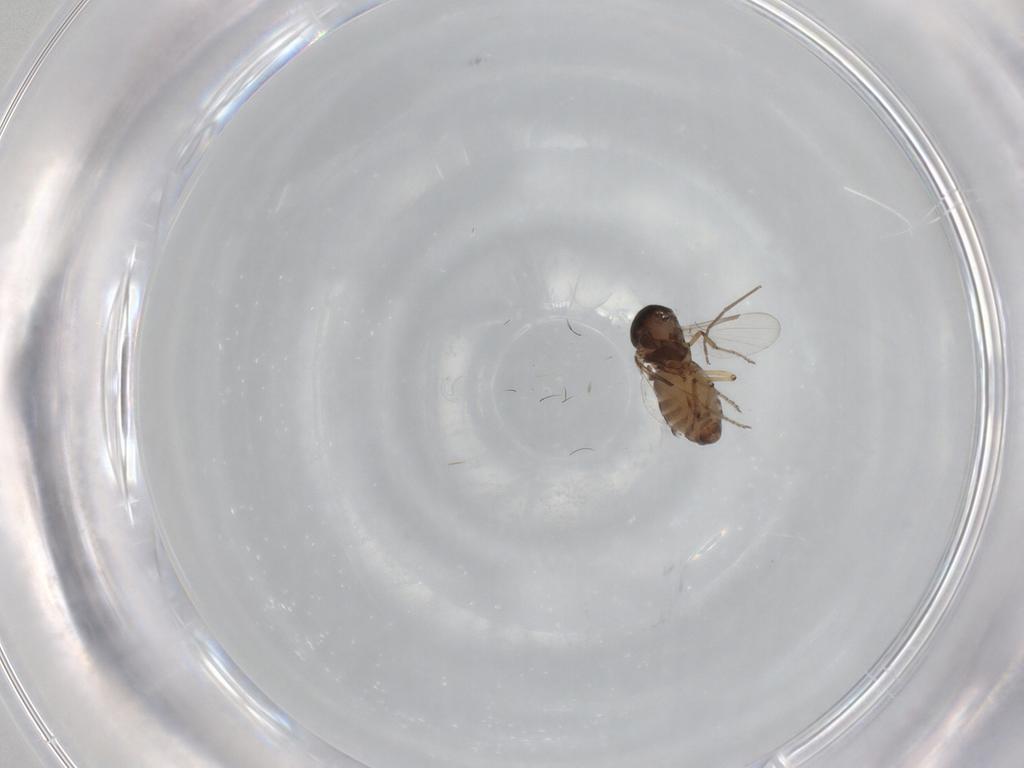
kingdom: Animalia
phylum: Arthropoda
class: Insecta
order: Diptera
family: Ceratopogonidae
